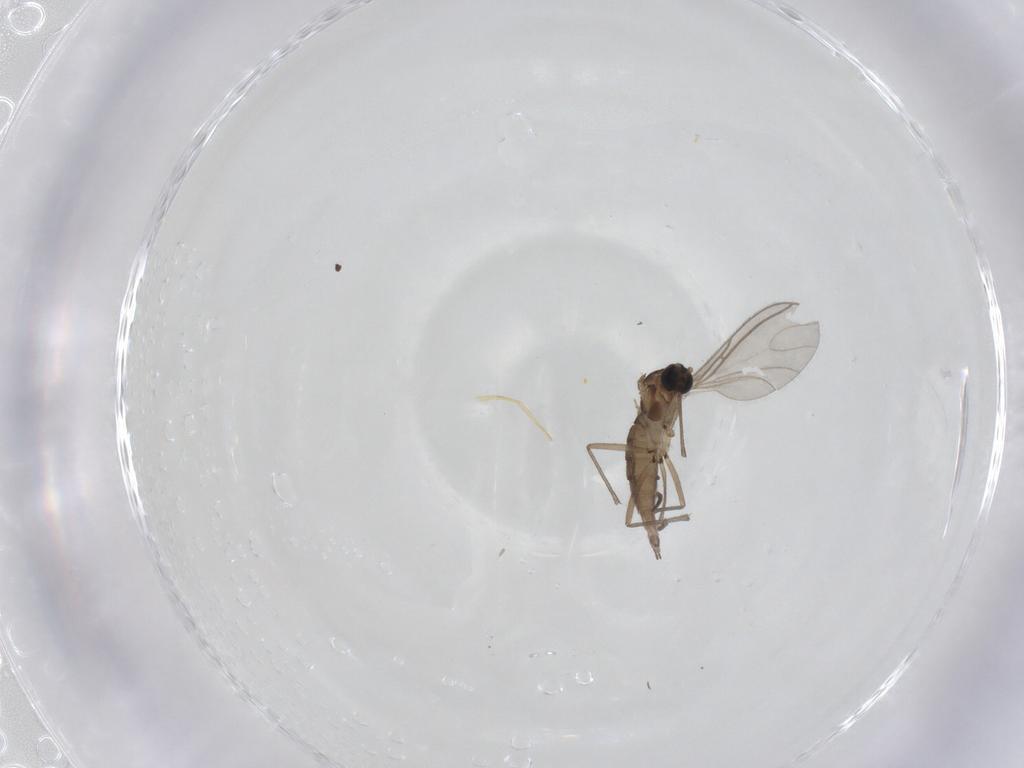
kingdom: Animalia
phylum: Arthropoda
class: Insecta
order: Diptera
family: Sciaridae
